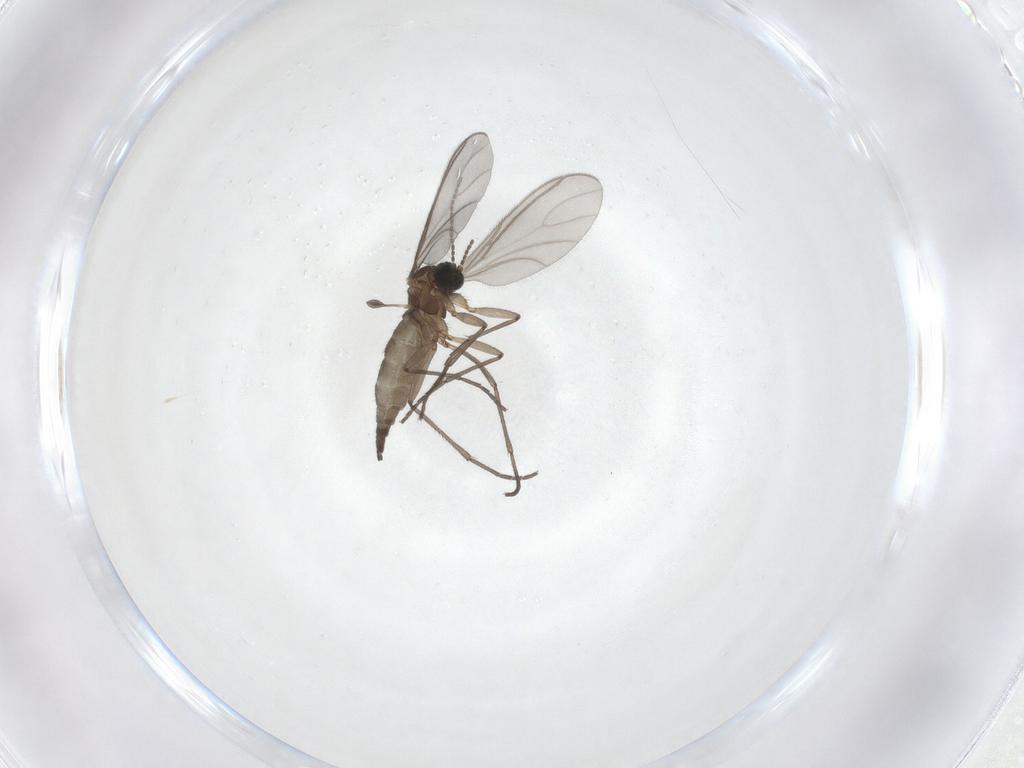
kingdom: Animalia
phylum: Arthropoda
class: Insecta
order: Diptera
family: Sciaridae
